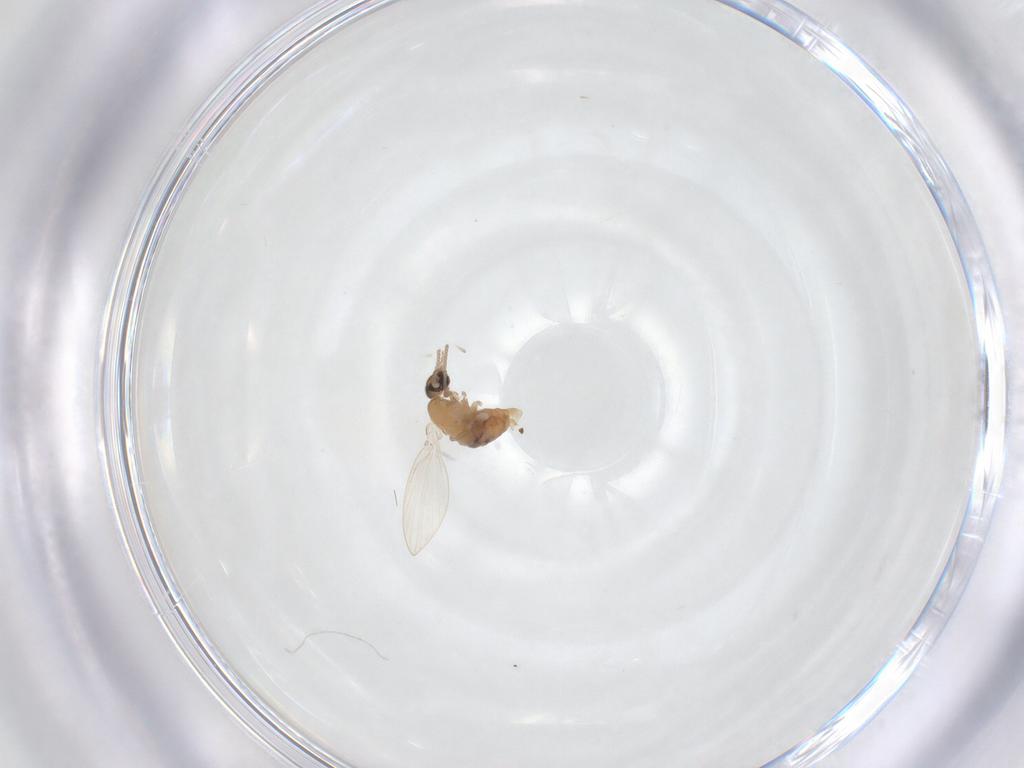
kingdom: Animalia
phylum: Arthropoda
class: Insecta
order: Diptera
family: Psychodidae
